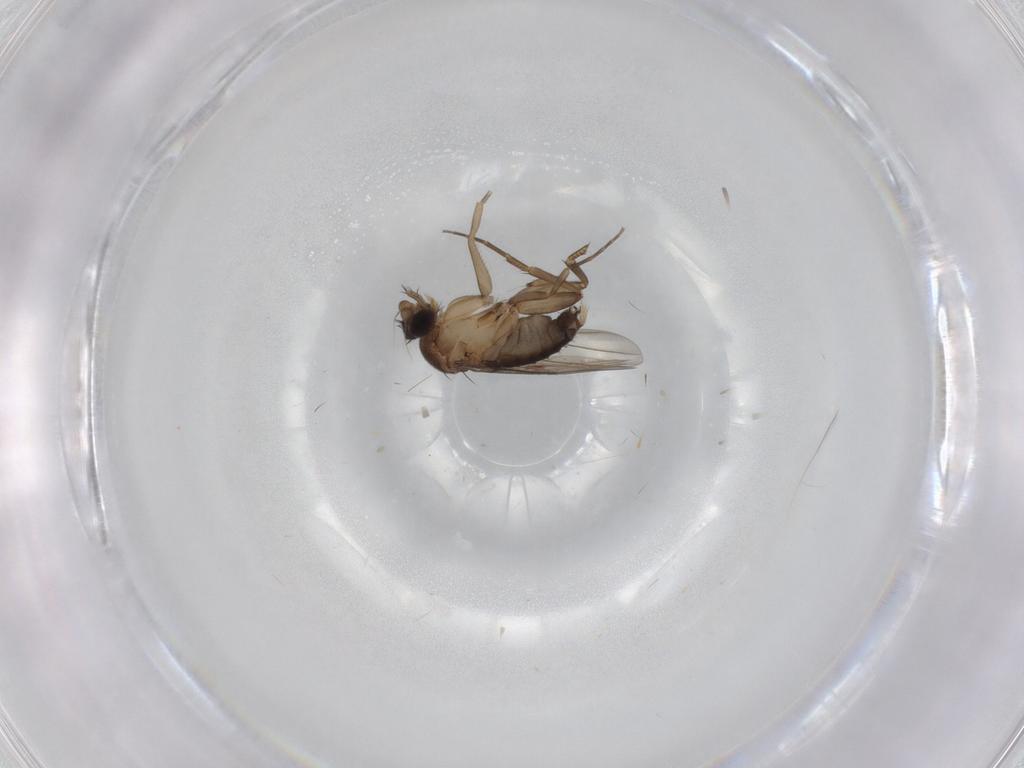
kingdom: Animalia
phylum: Arthropoda
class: Insecta
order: Diptera
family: Phoridae
